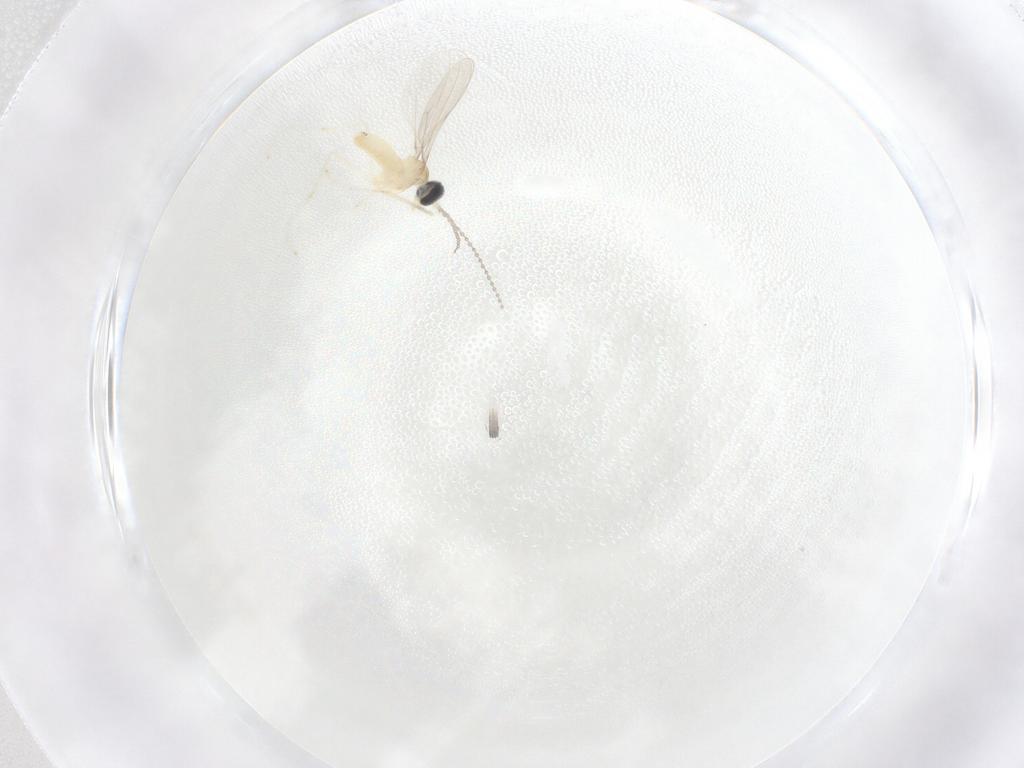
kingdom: Animalia
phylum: Arthropoda
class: Insecta
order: Diptera
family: Cecidomyiidae
